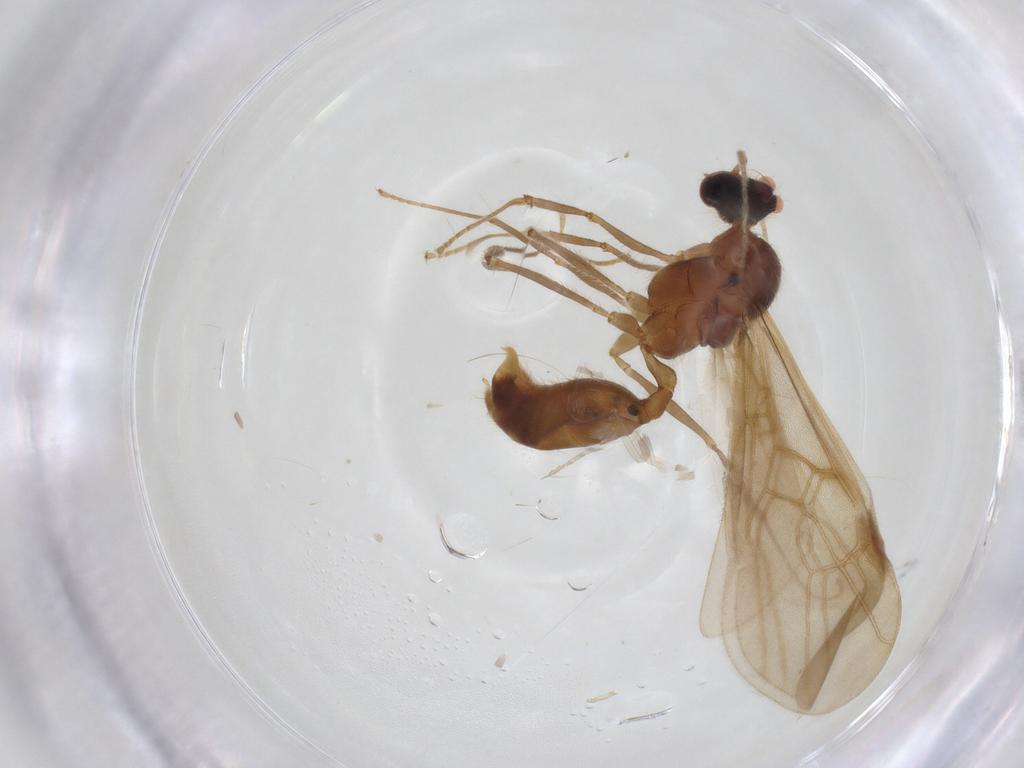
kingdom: Animalia
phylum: Arthropoda
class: Insecta
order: Hymenoptera
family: Formicidae
